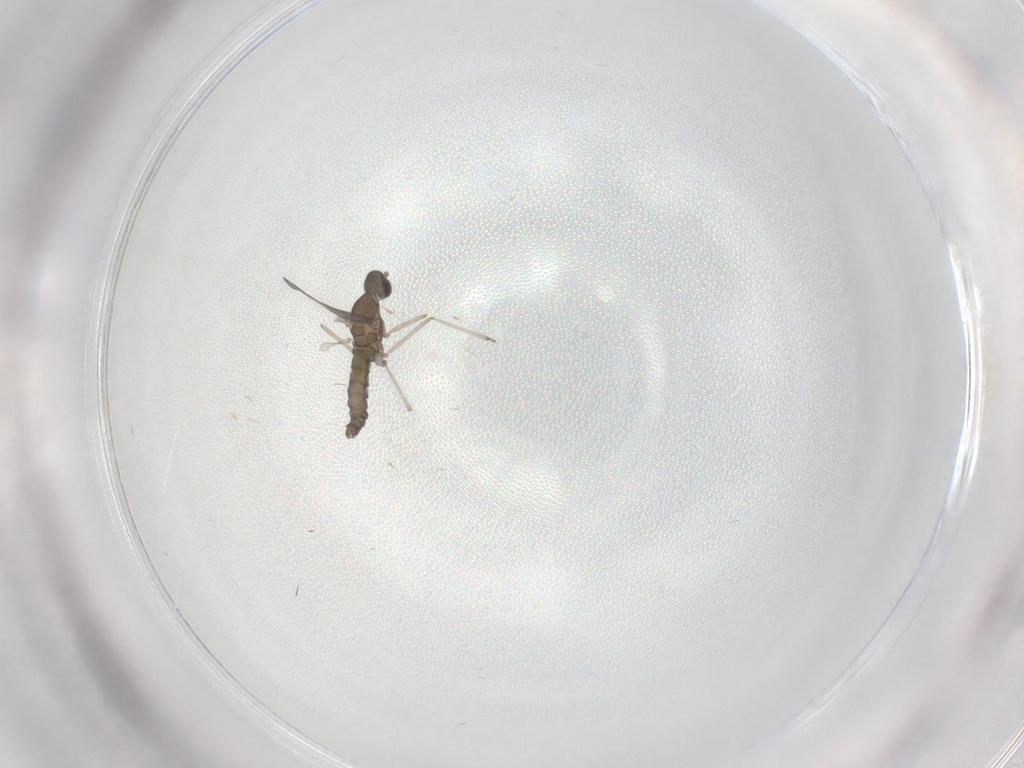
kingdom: Animalia
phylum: Arthropoda
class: Insecta
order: Diptera
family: Cecidomyiidae
